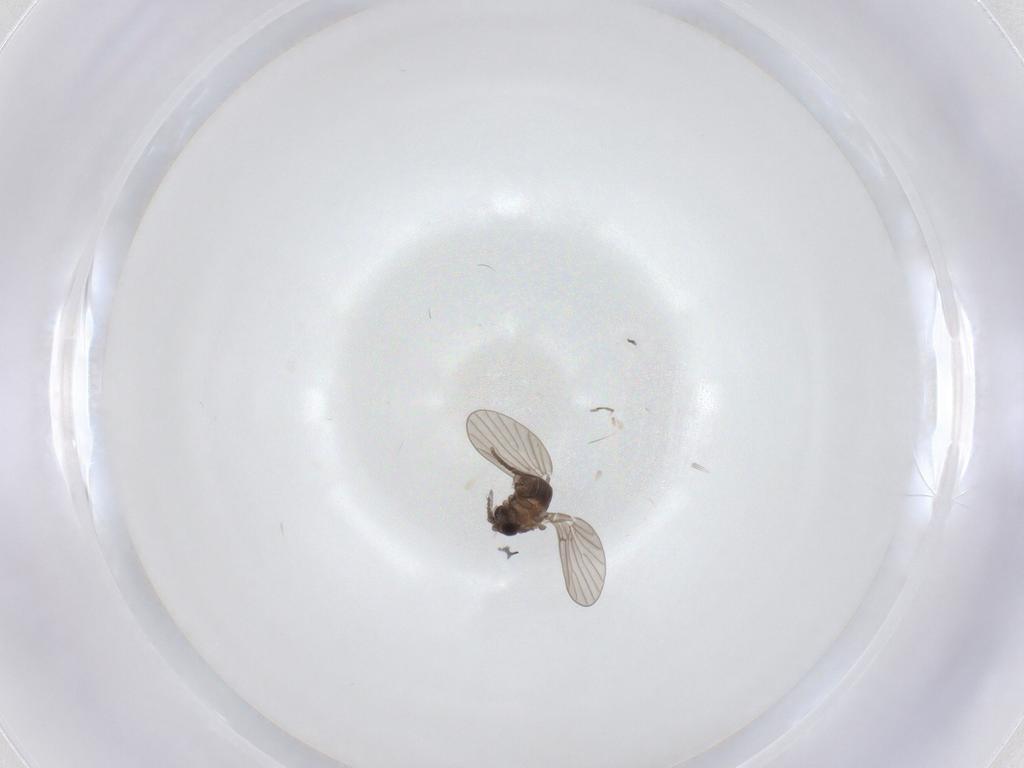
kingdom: Animalia
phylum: Arthropoda
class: Insecta
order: Diptera
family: Cecidomyiidae
